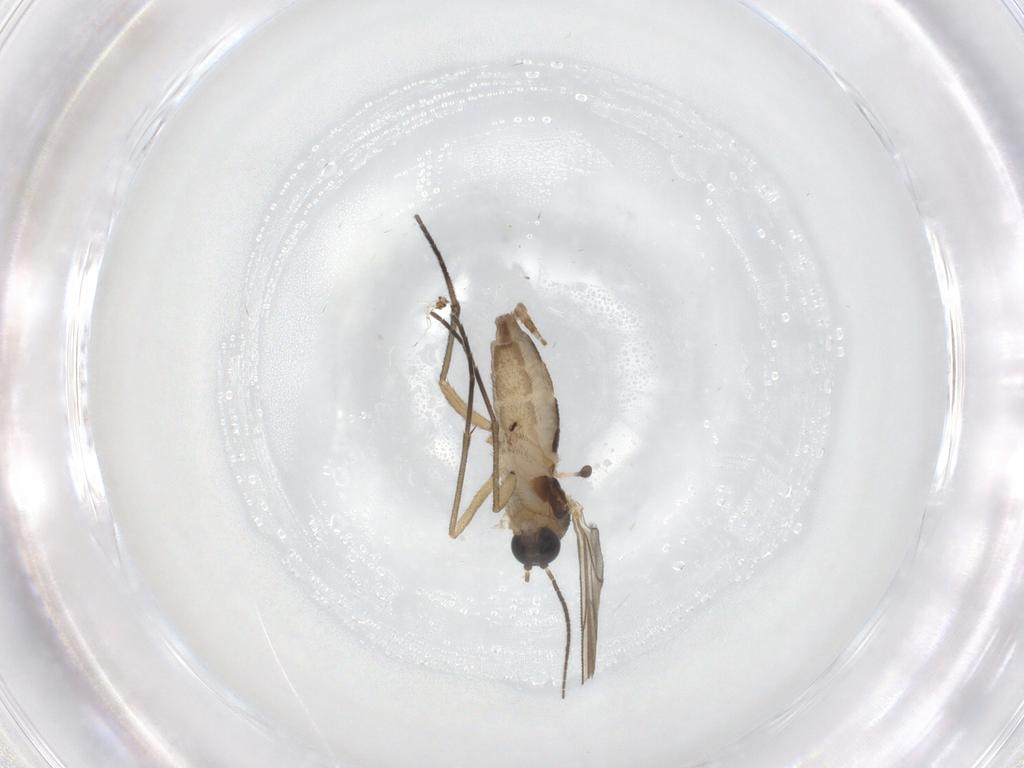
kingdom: Animalia
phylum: Arthropoda
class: Insecta
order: Diptera
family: Sciaridae
